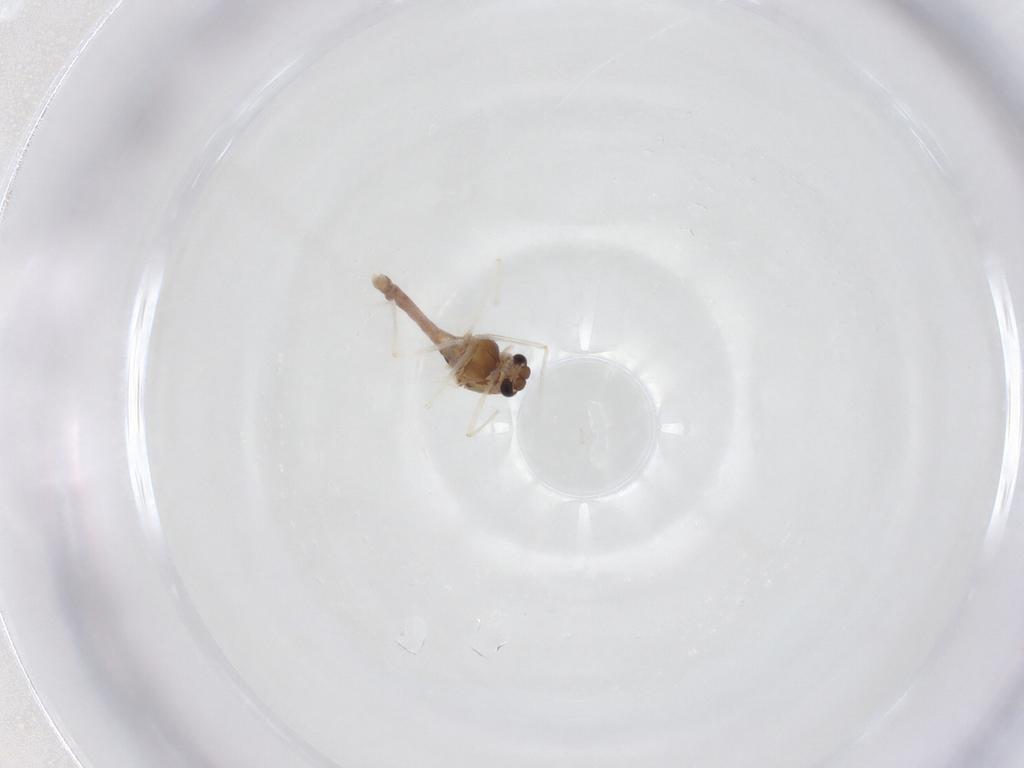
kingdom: Animalia
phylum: Arthropoda
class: Insecta
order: Diptera
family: Chironomidae
